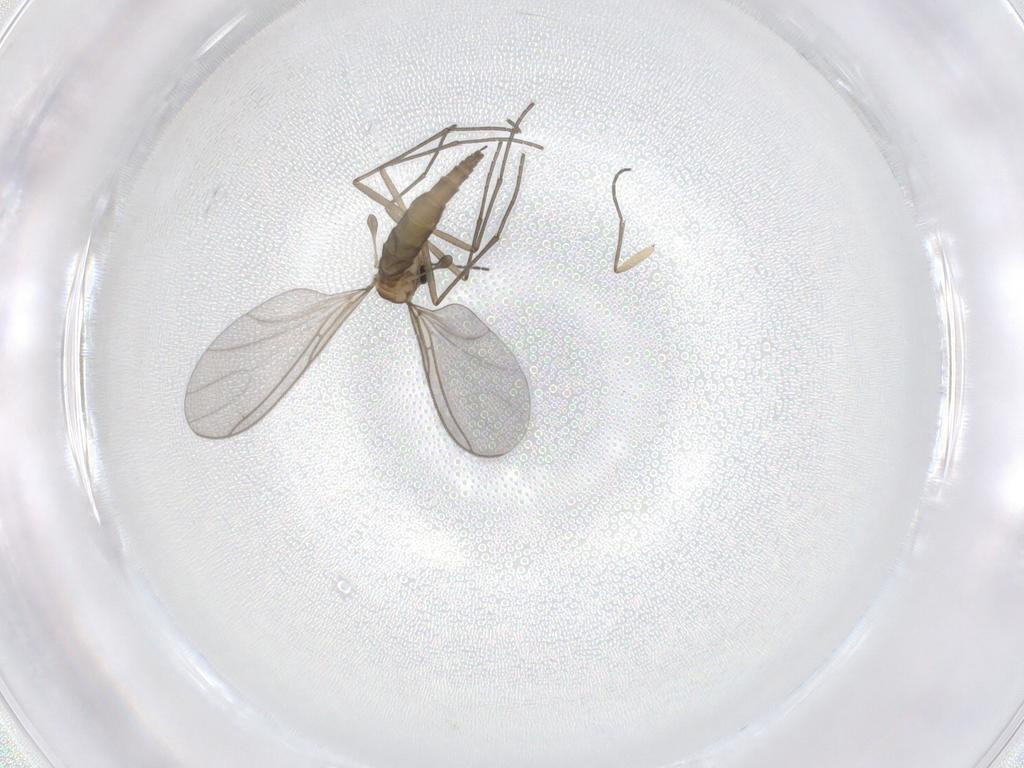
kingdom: Animalia
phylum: Arthropoda
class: Insecta
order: Diptera
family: Sciaridae
